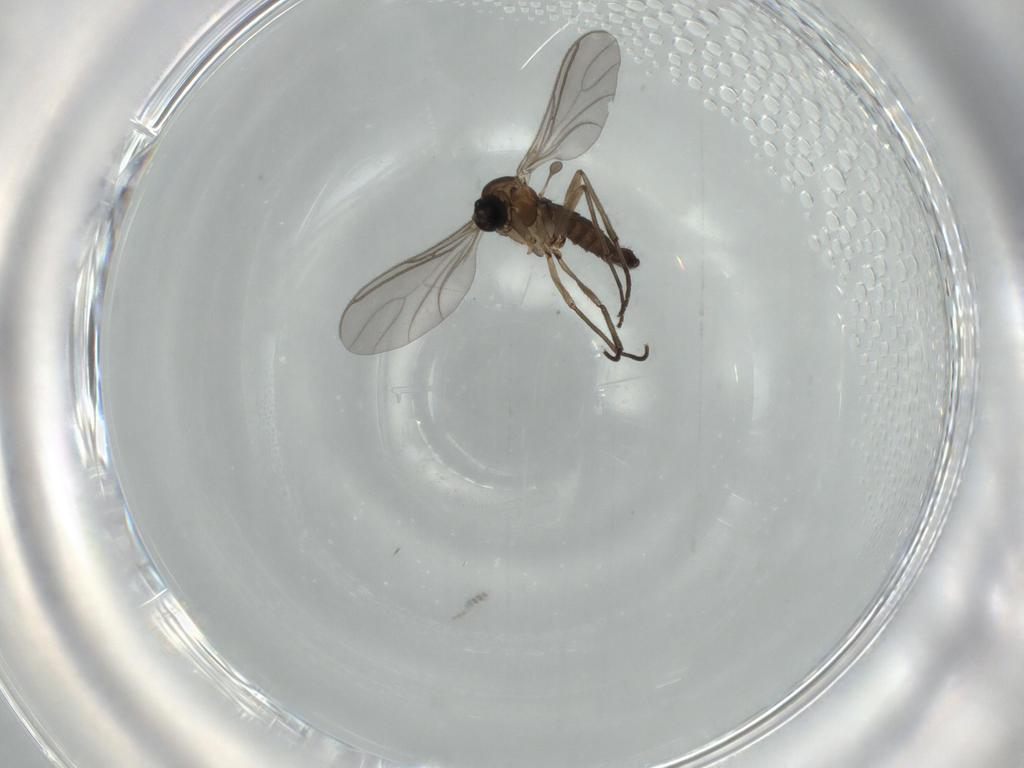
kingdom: Animalia
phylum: Arthropoda
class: Insecta
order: Diptera
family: Sciaridae
